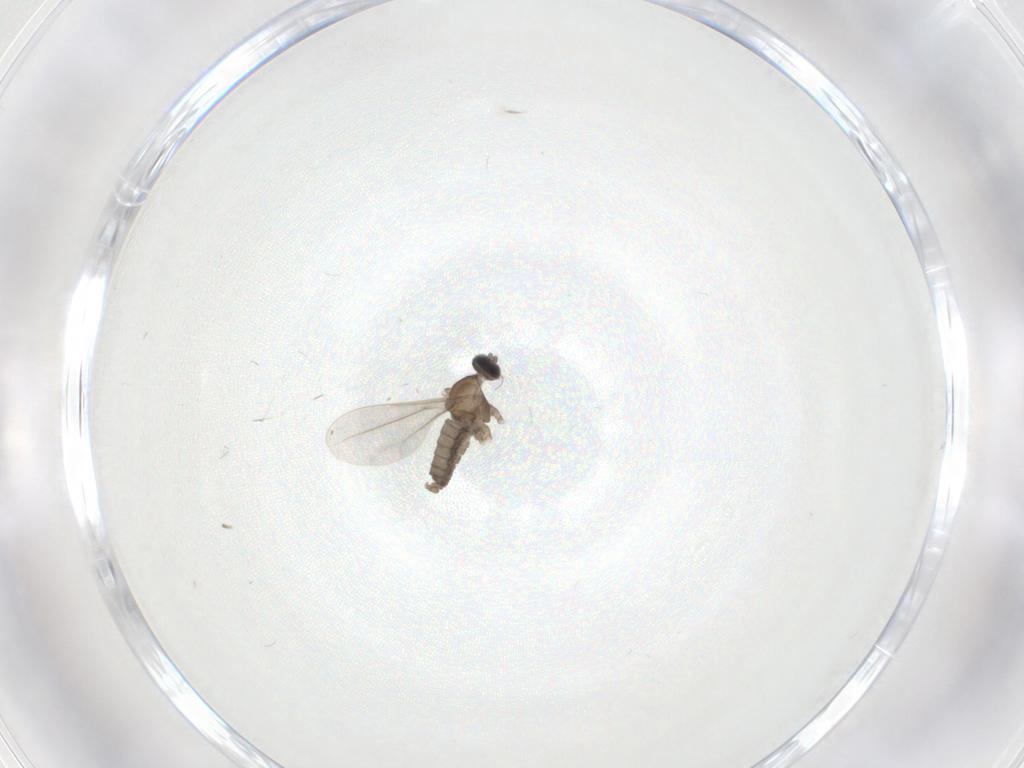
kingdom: Animalia
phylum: Arthropoda
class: Insecta
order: Diptera
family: Cecidomyiidae
